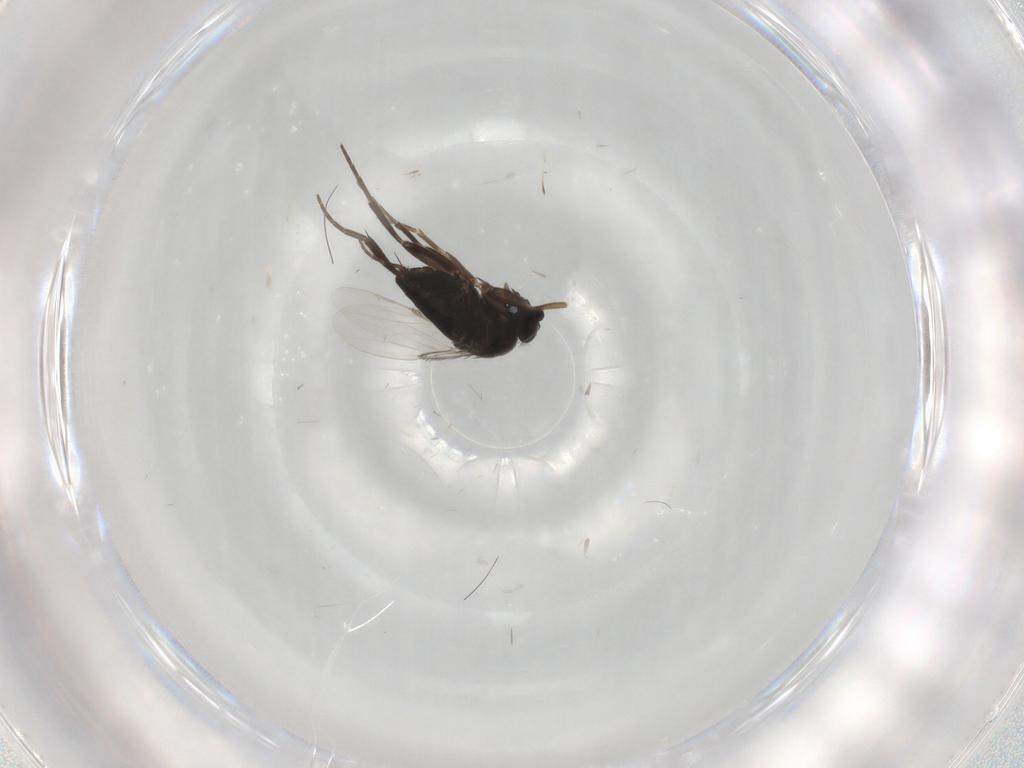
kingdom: Animalia
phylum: Arthropoda
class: Insecta
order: Diptera
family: Phoridae
